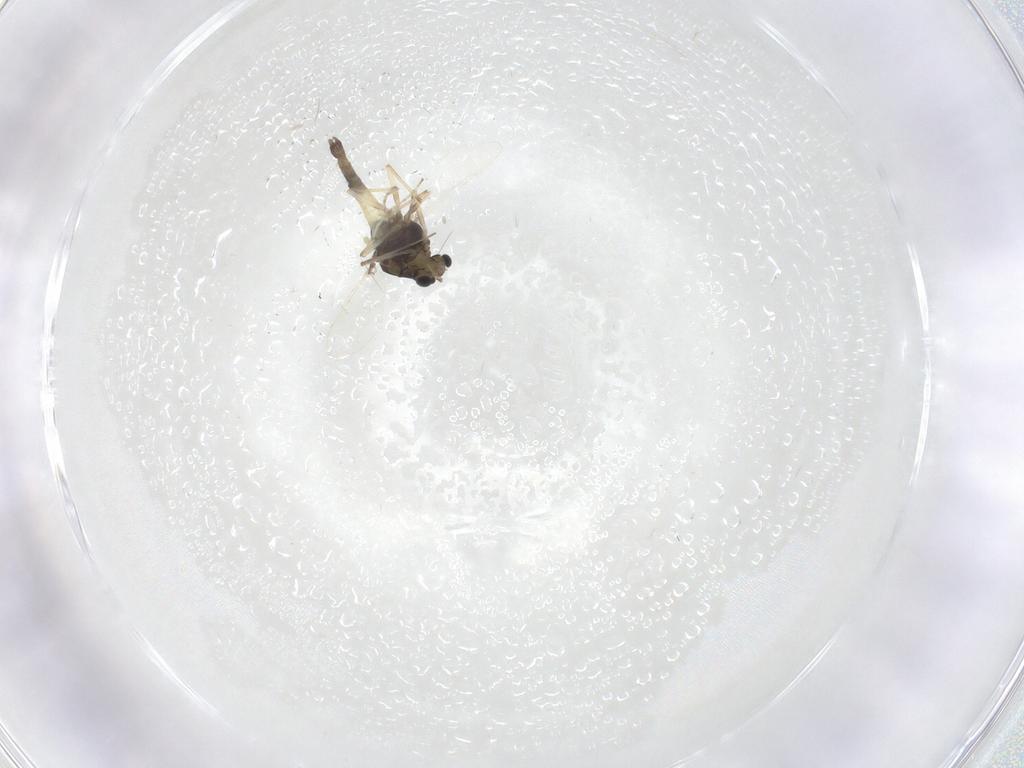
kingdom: Animalia
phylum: Arthropoda
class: Insecta
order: Diptera
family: Chironomidae
